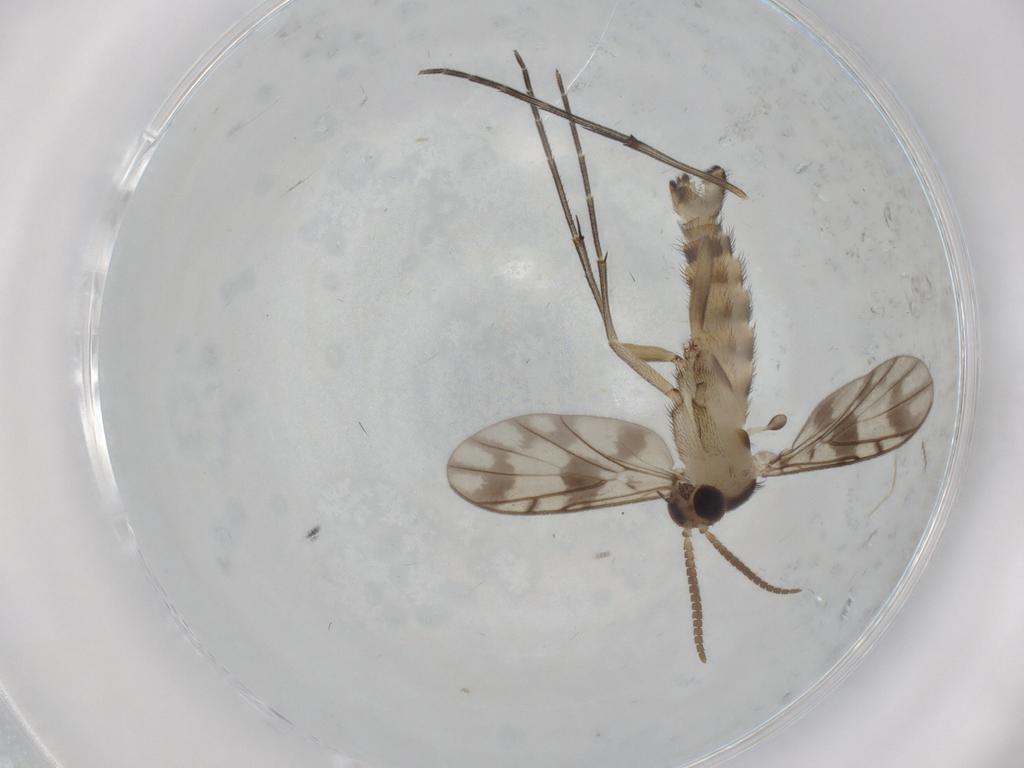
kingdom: Animalia
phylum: Arthropoda
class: Insecta
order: Diptera
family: Keroplatidae
